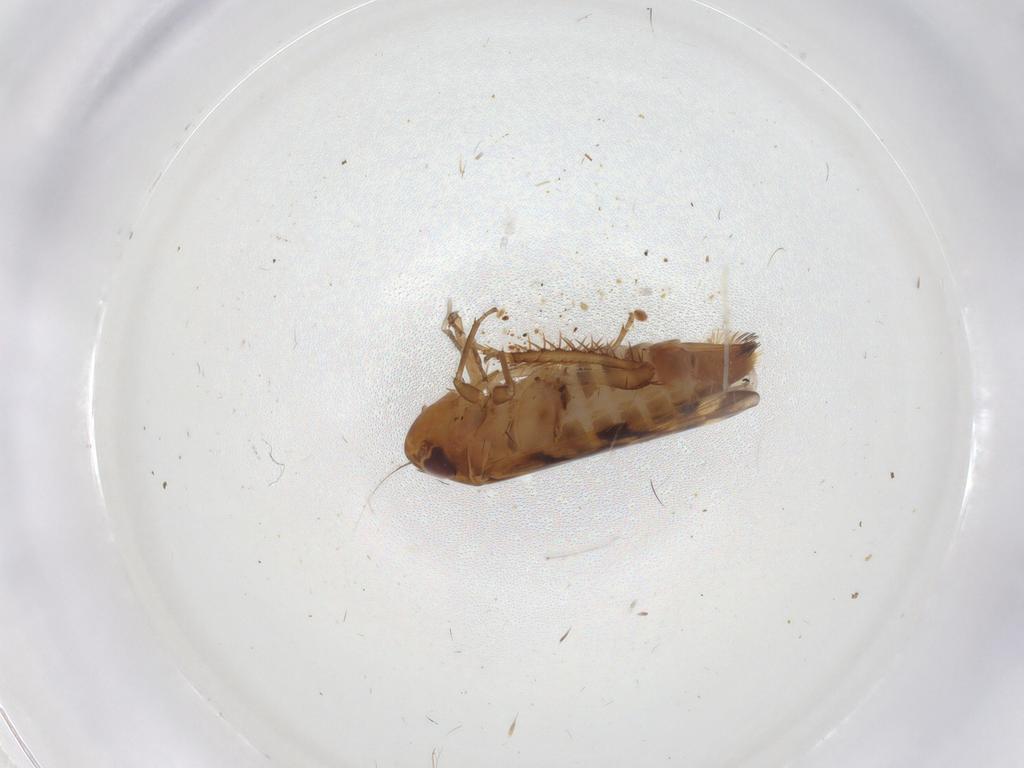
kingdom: Animalia
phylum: Arthropoda
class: Insecta
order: Hemiptera
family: Cicadellidae
